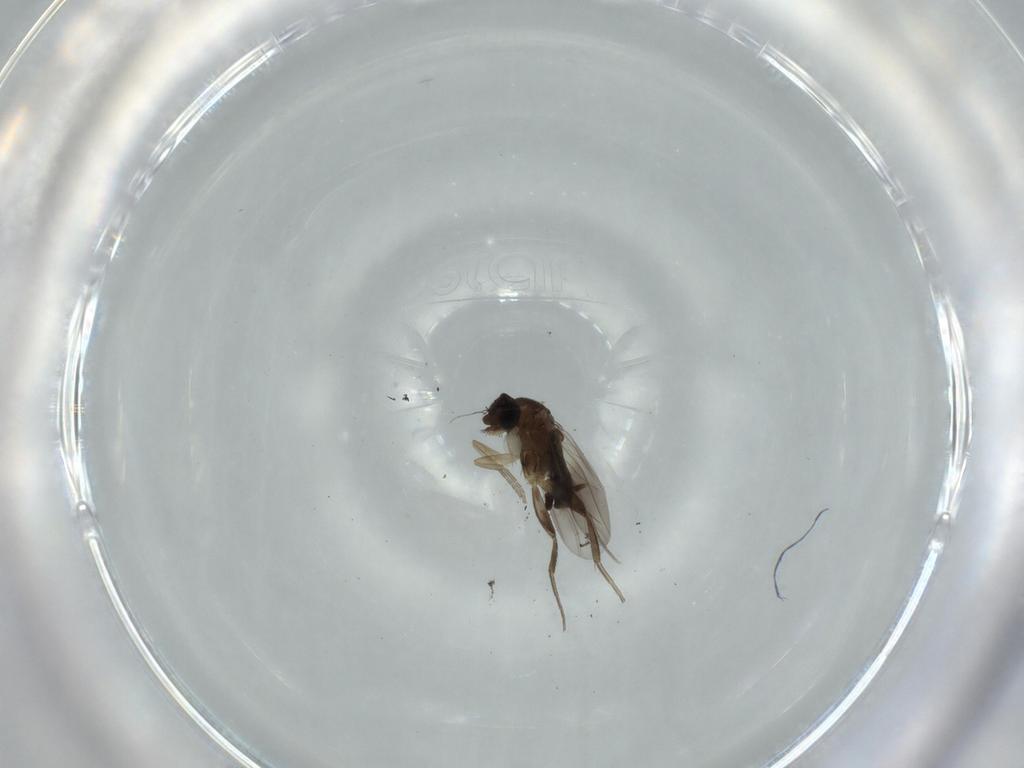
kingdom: Animalia
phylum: Arthropoda
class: Insecta
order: Diptera
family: Phoridae
